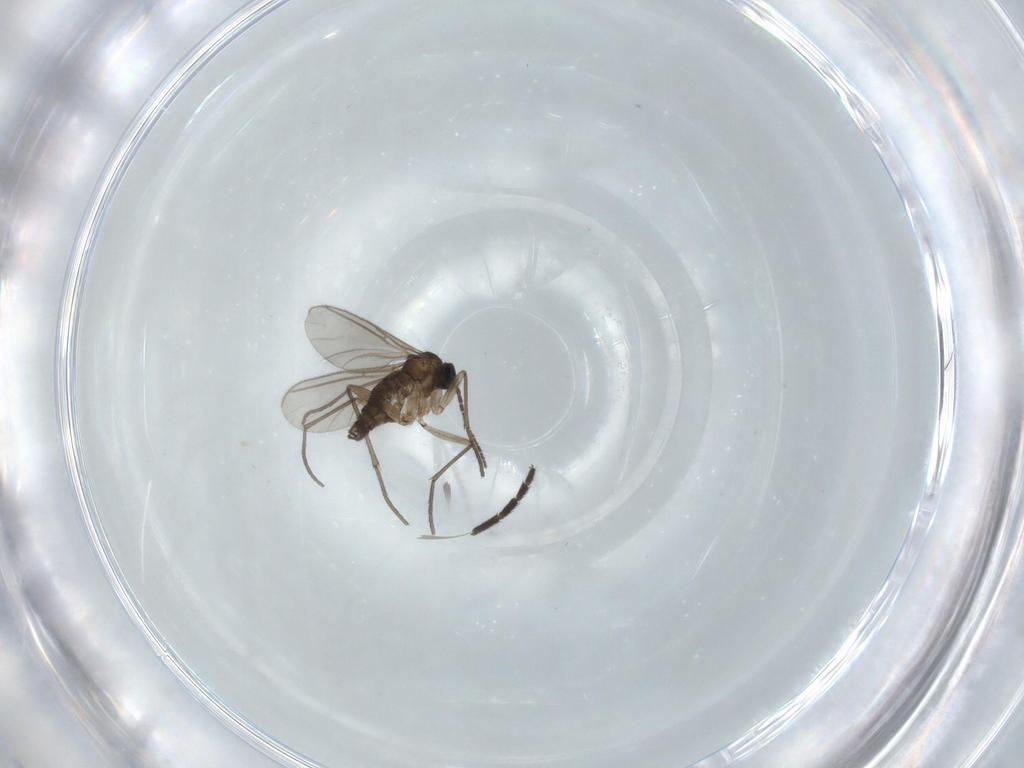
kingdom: Animalia
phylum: Arthropoda
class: Insecta
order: Diptera
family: Sciaridae
